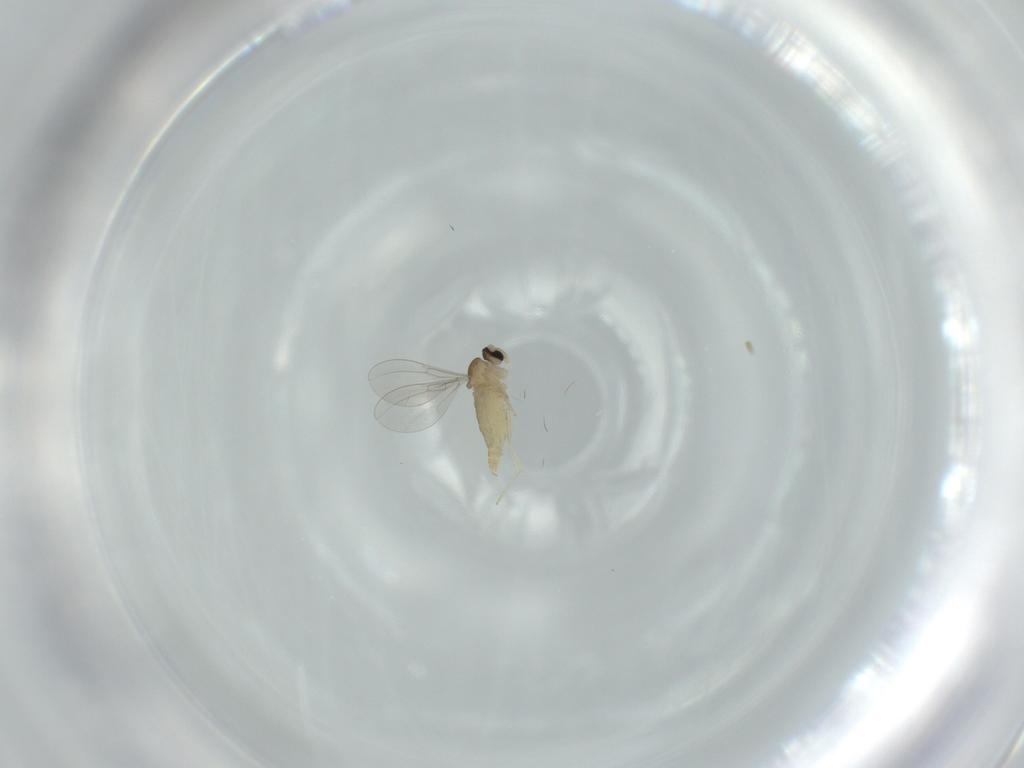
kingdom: Animalia
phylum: Arthropoda
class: Insecta
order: Diptera
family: Cecidomyiidae
